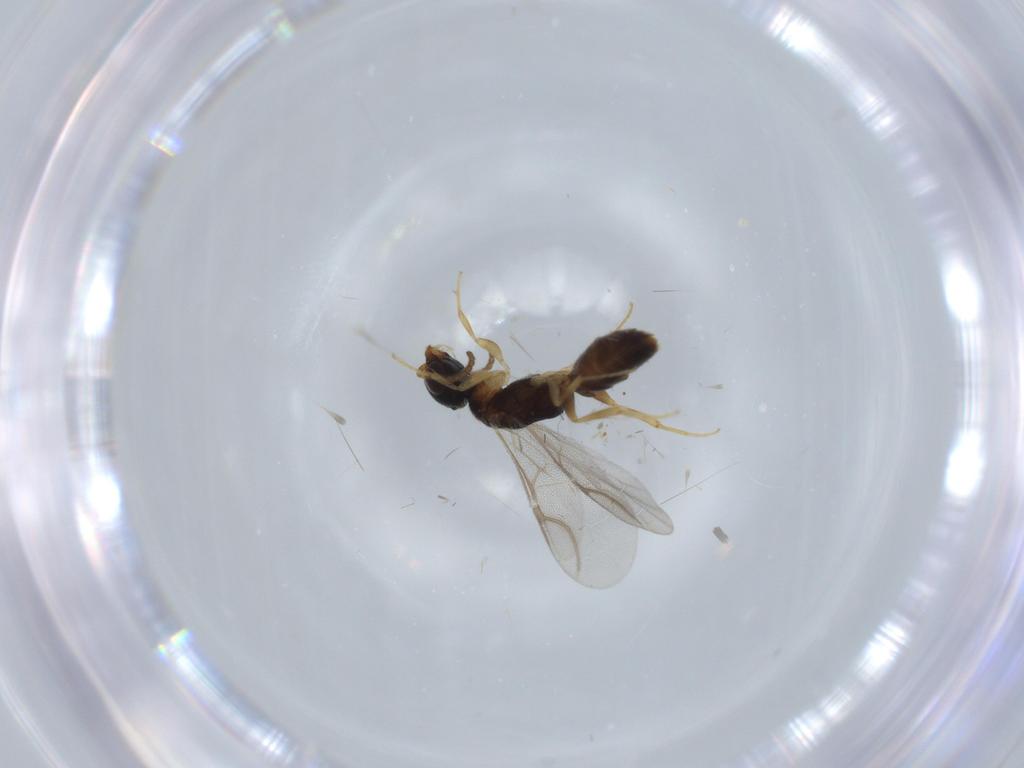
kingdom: Animalia
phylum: Arthropoda
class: Insecta
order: Hymenoptera
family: Bethylidae
